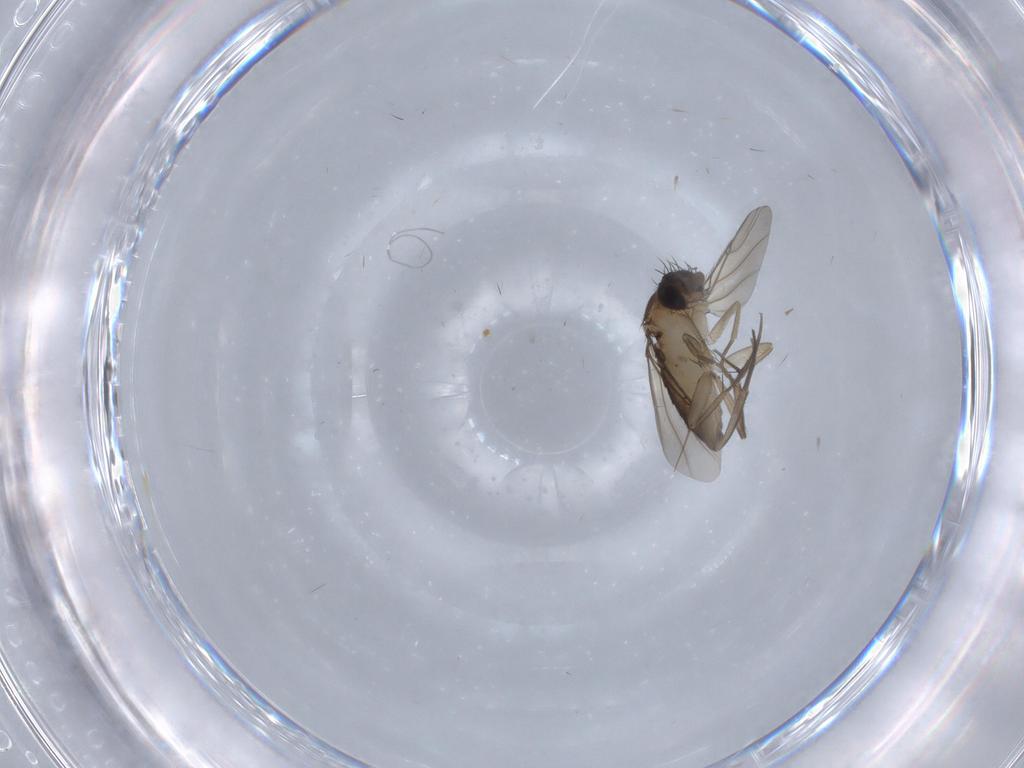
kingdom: Animalia
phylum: Arthropoda
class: Insecta
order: Diptera
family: Phoridae
